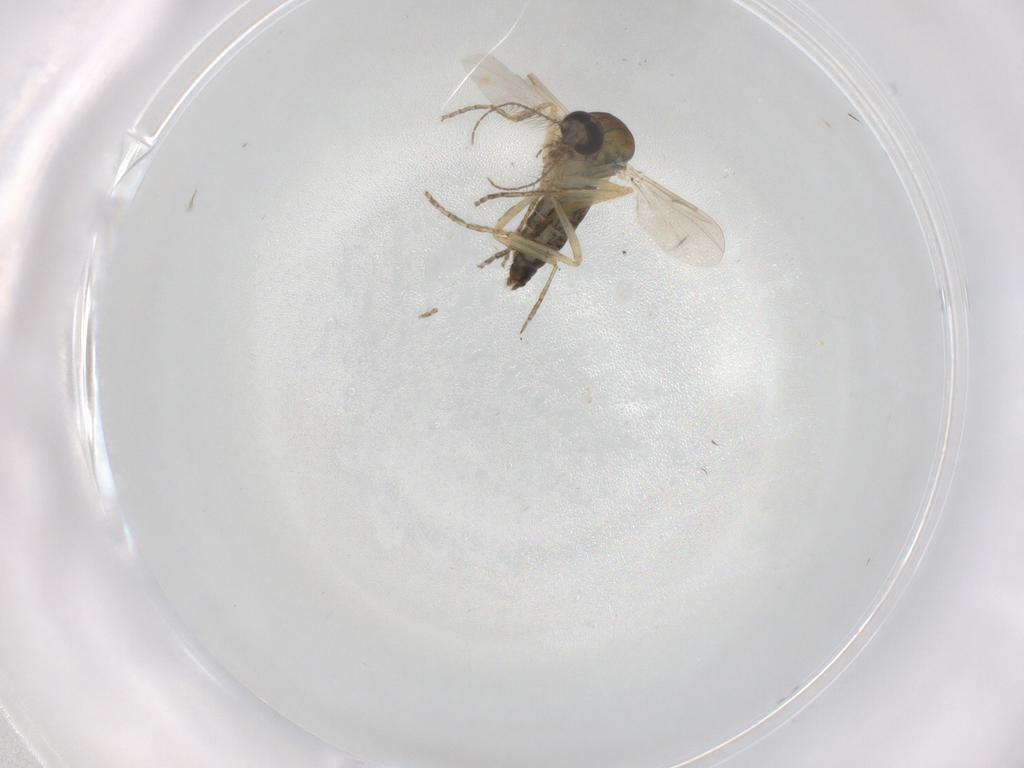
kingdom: Animalia
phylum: Arthropoda
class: Insecta
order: Diptera
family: Ceratopogonidae
